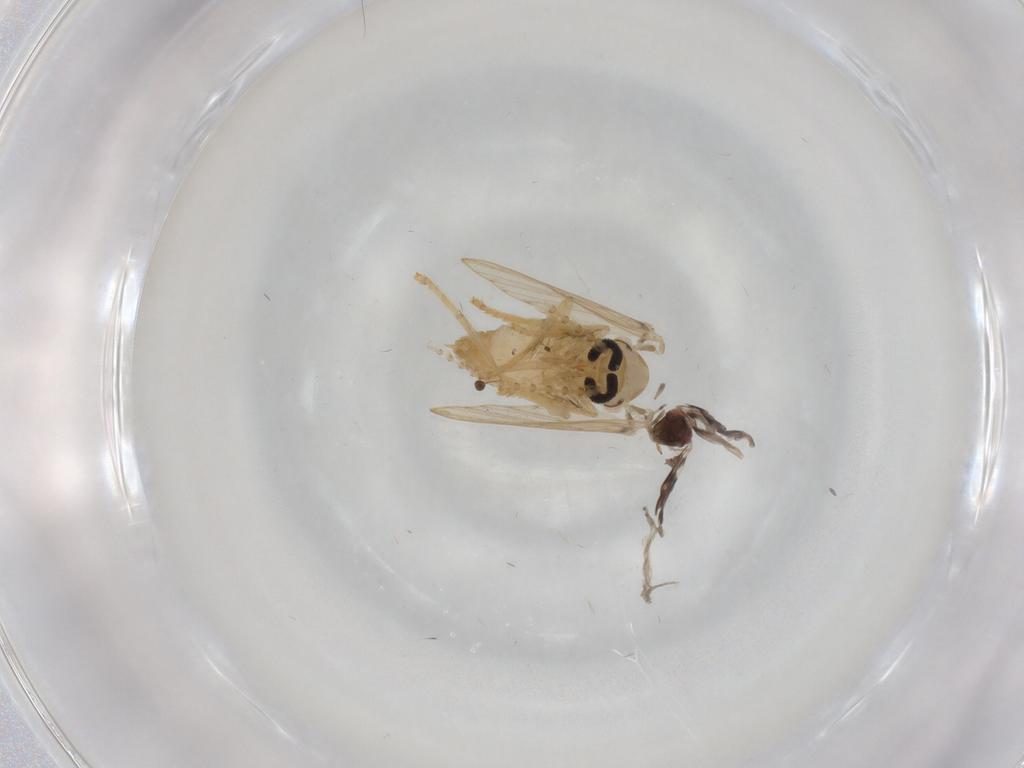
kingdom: Animalia
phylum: Arthropoda
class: Insecta
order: Diptera
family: Psychodidae
